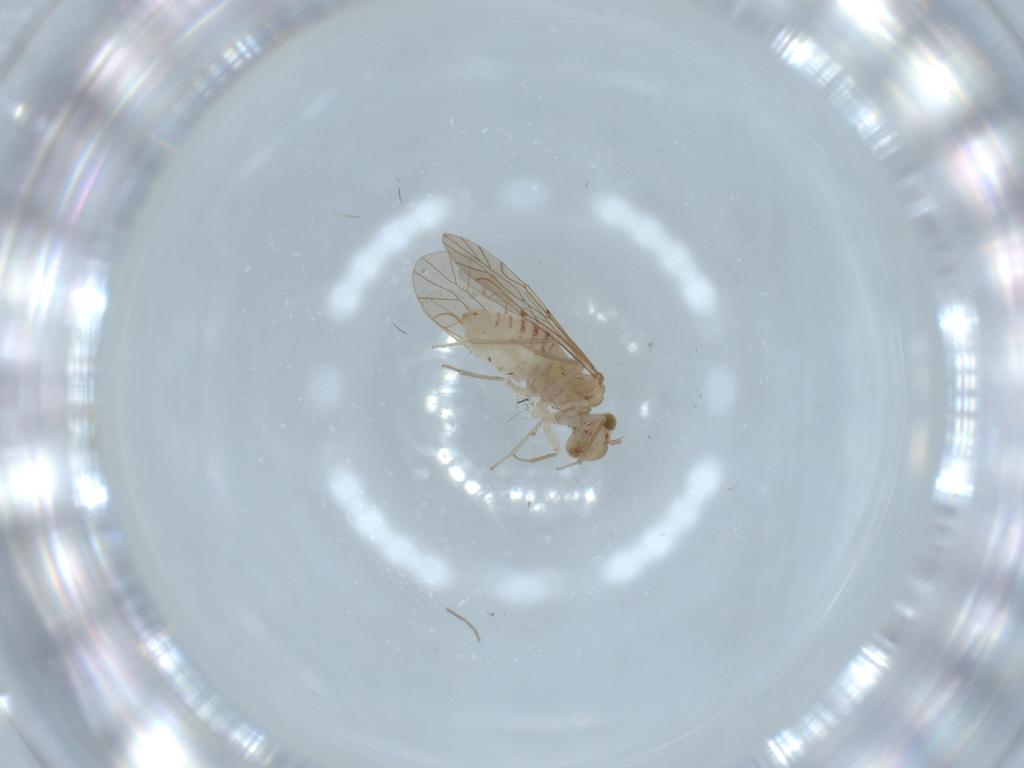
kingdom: Animalia
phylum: Arthropoda
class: Insecta
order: Psocodea
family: Lachesillidae
